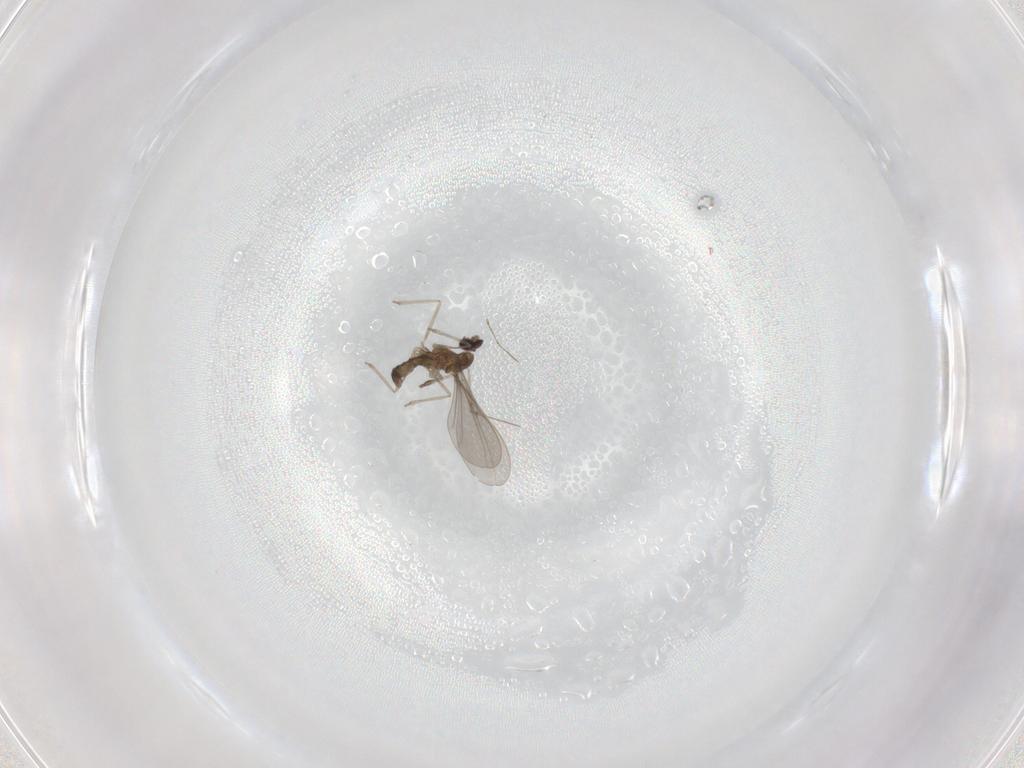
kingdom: Animalia
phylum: Arthropoda
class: Insecta
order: Diptera
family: Cecidomyiidae
